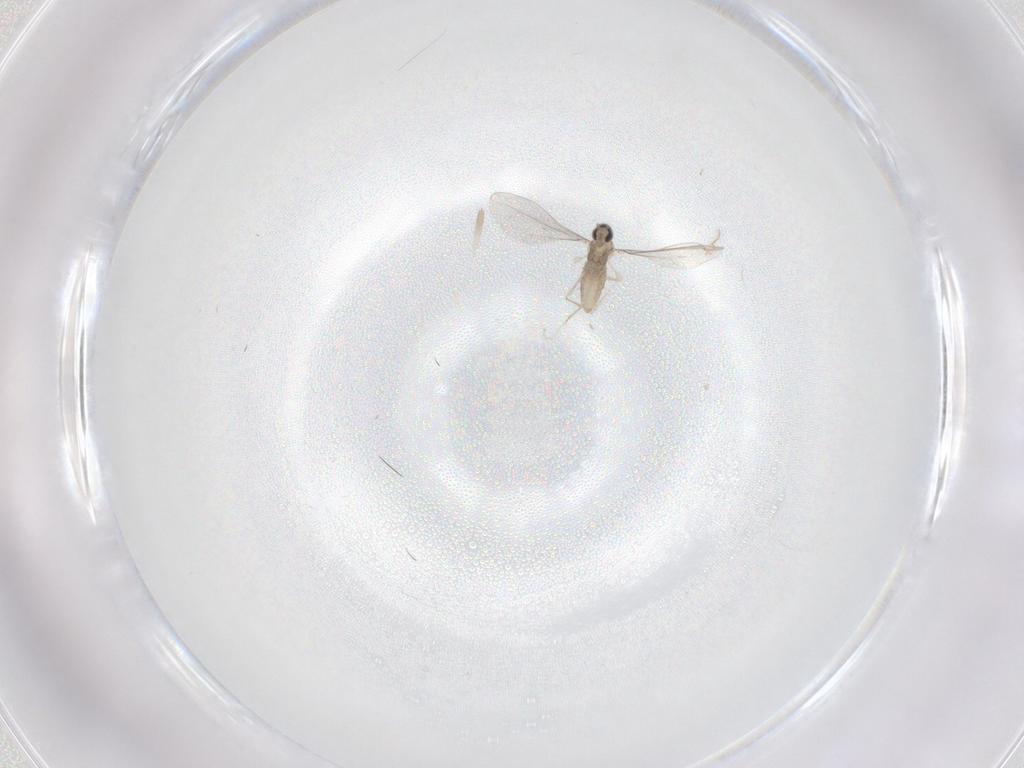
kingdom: Animalia
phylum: Arthropoda
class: Insecta
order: Diptera
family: Cecidomyiidae
